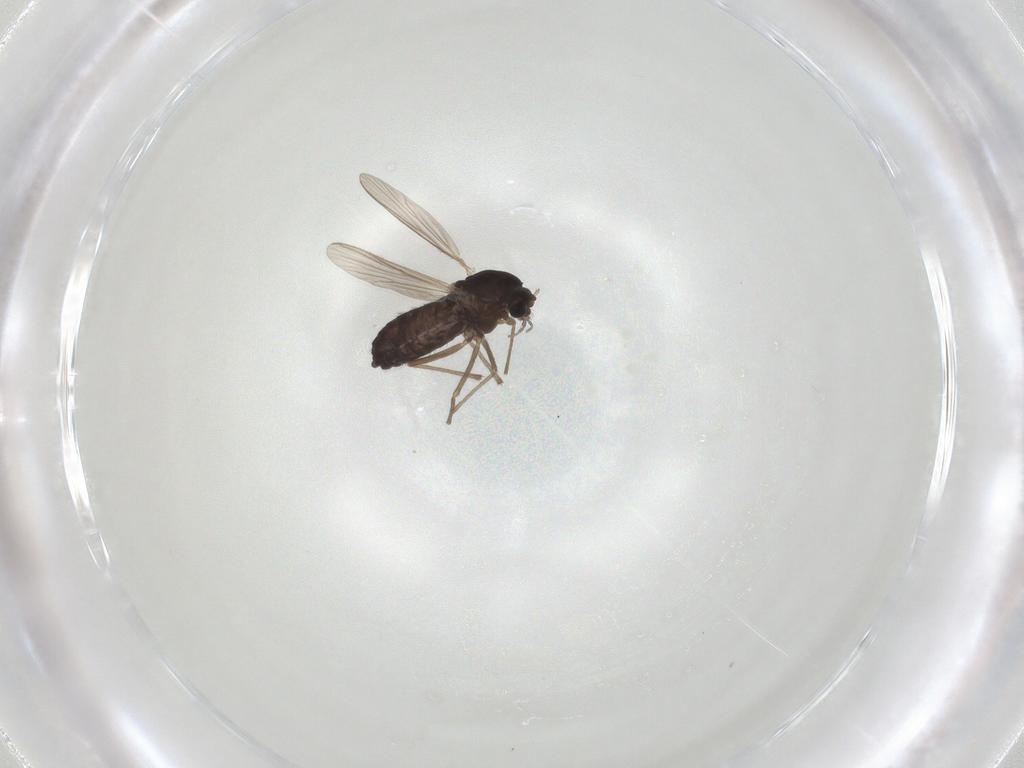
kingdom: Animalia
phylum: Arthropoda
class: Insecta
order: Diptera
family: Chironomidae
